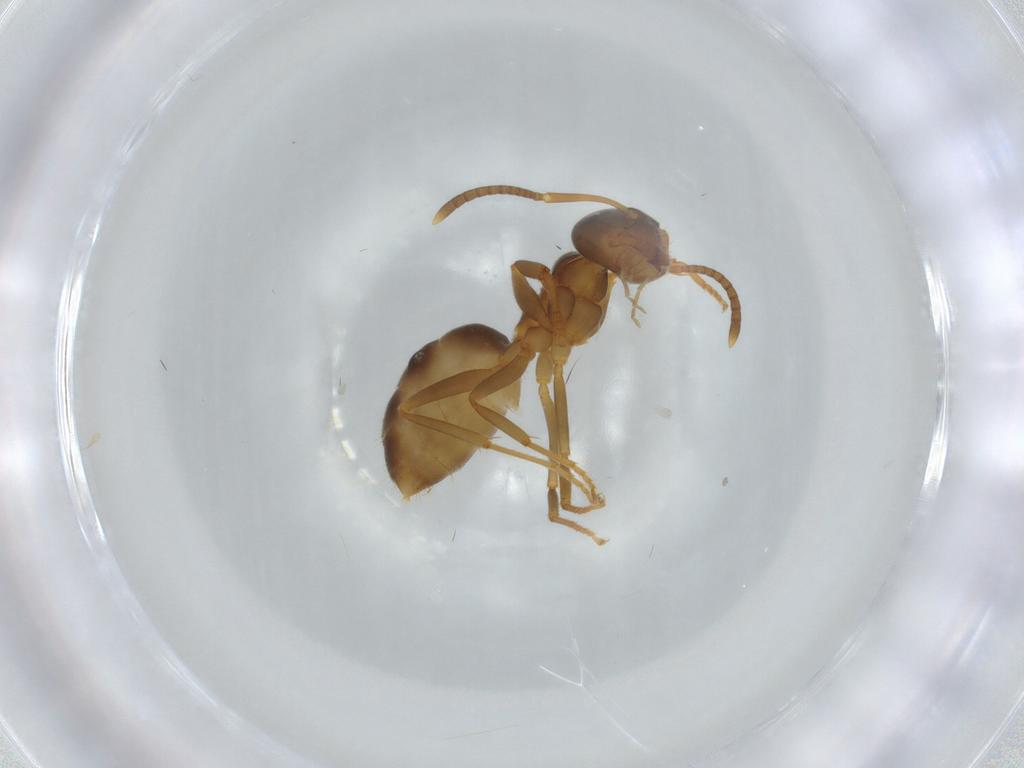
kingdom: Animalia
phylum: Arthropoda
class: Insecta
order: Hymenoptera
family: Formicidae
